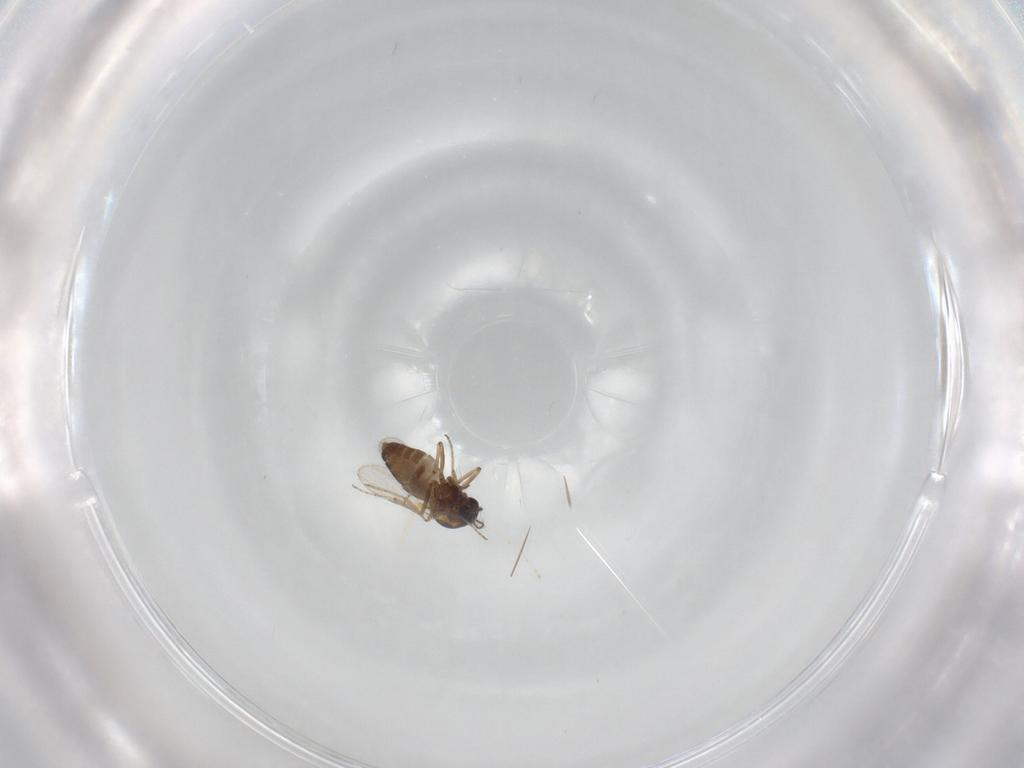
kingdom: Animalia
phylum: Arthropoda
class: Insecta
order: Diptera
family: Ceratopogonidae
